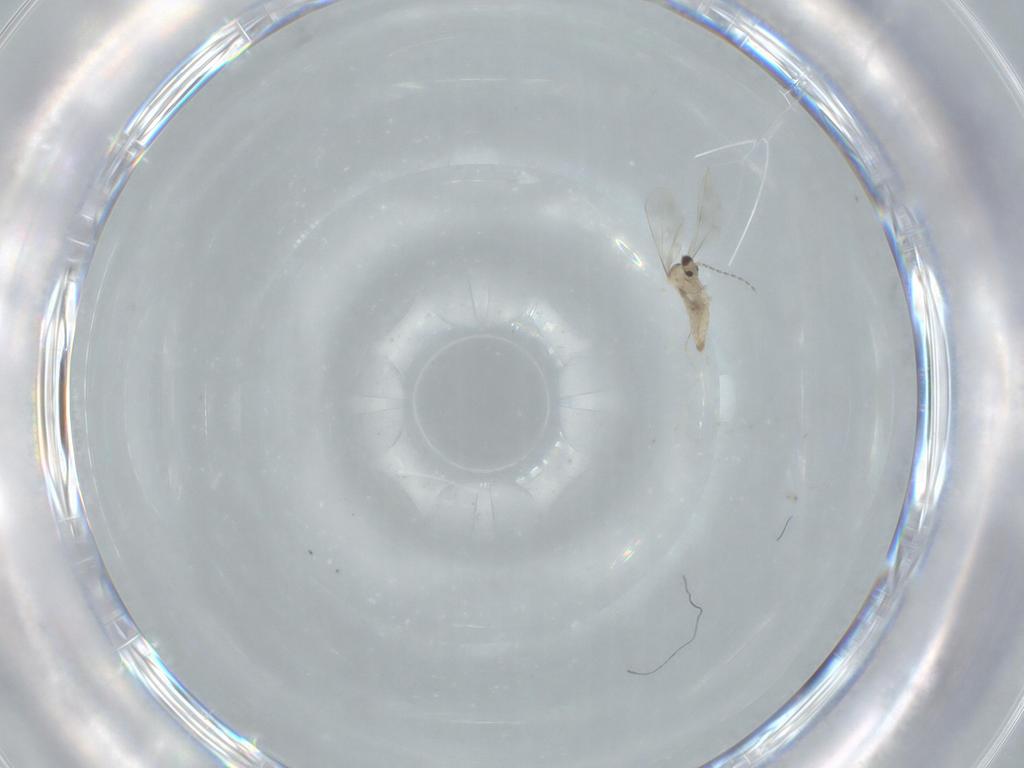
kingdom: Animalia
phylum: Arthropoda
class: Insecta
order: Diptera
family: Cecidomyiidae
